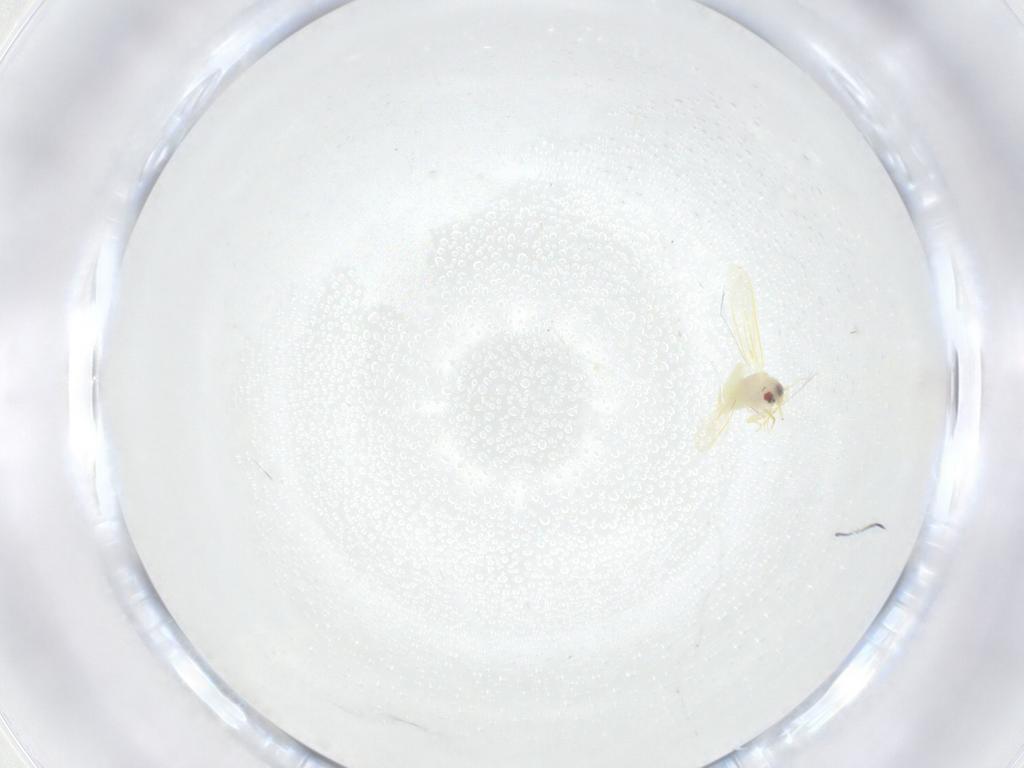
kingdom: Animalia
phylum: Arthropoda
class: Insecta
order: Hemiptera
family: Aleyrodidae
